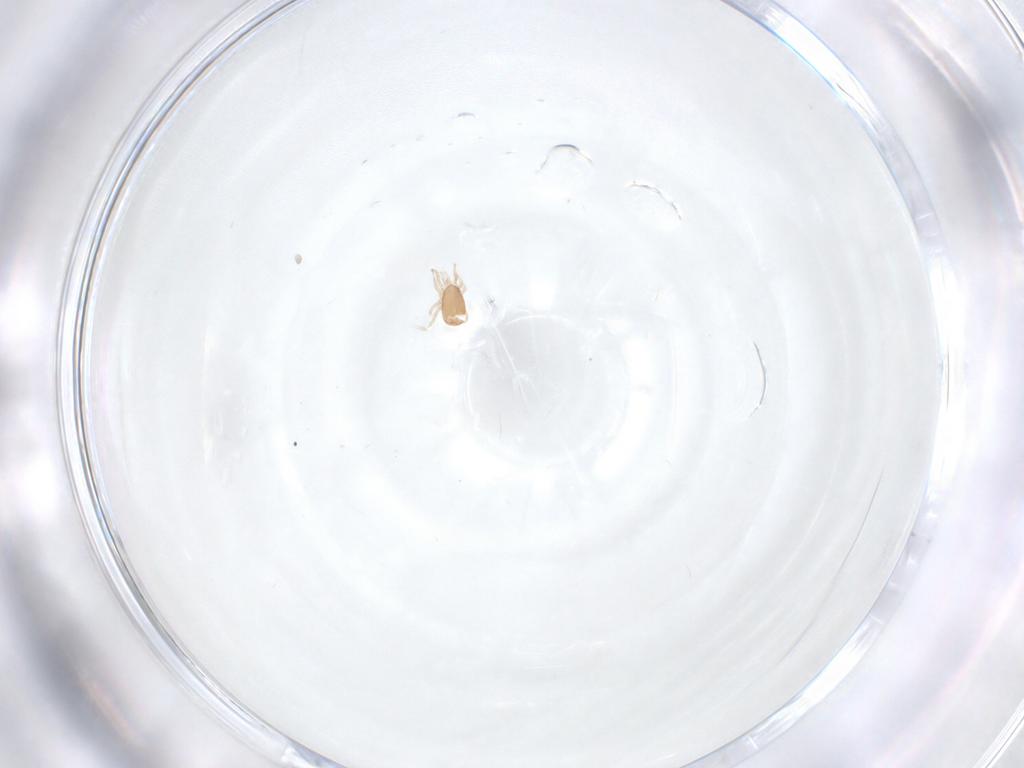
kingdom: Animalia
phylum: Arthropoda
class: Arachnida
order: Mesostigmata
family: Ascidae
